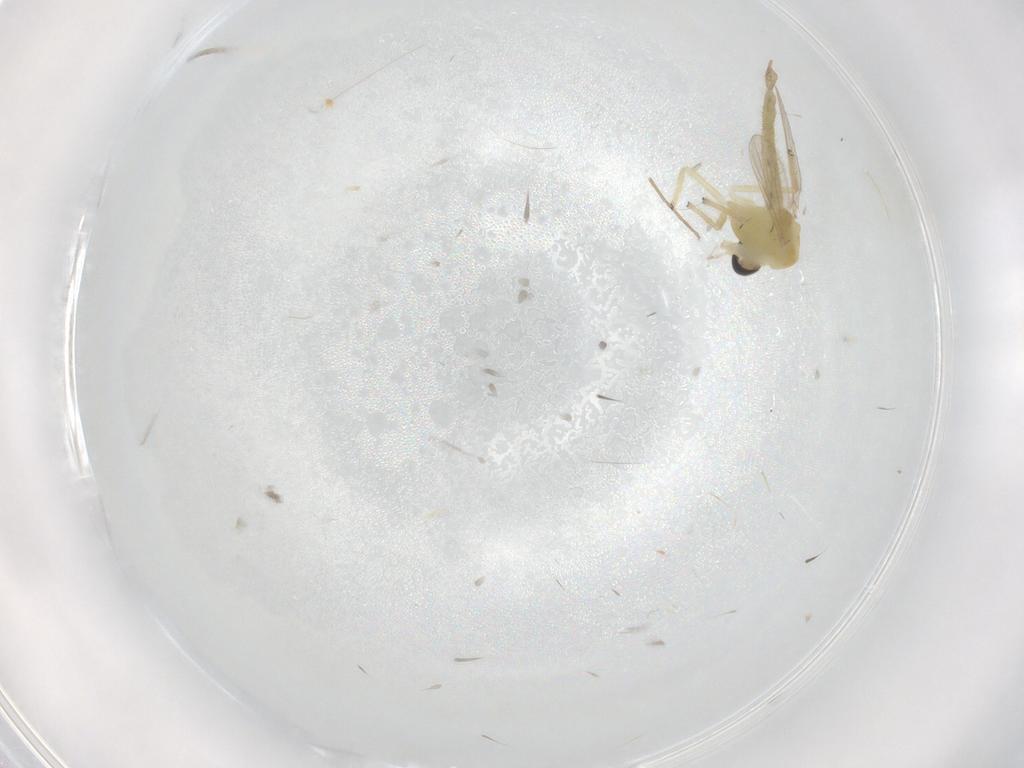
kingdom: Animalia
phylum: Arthropoda
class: Insecta
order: Diptera
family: Chironomidae
